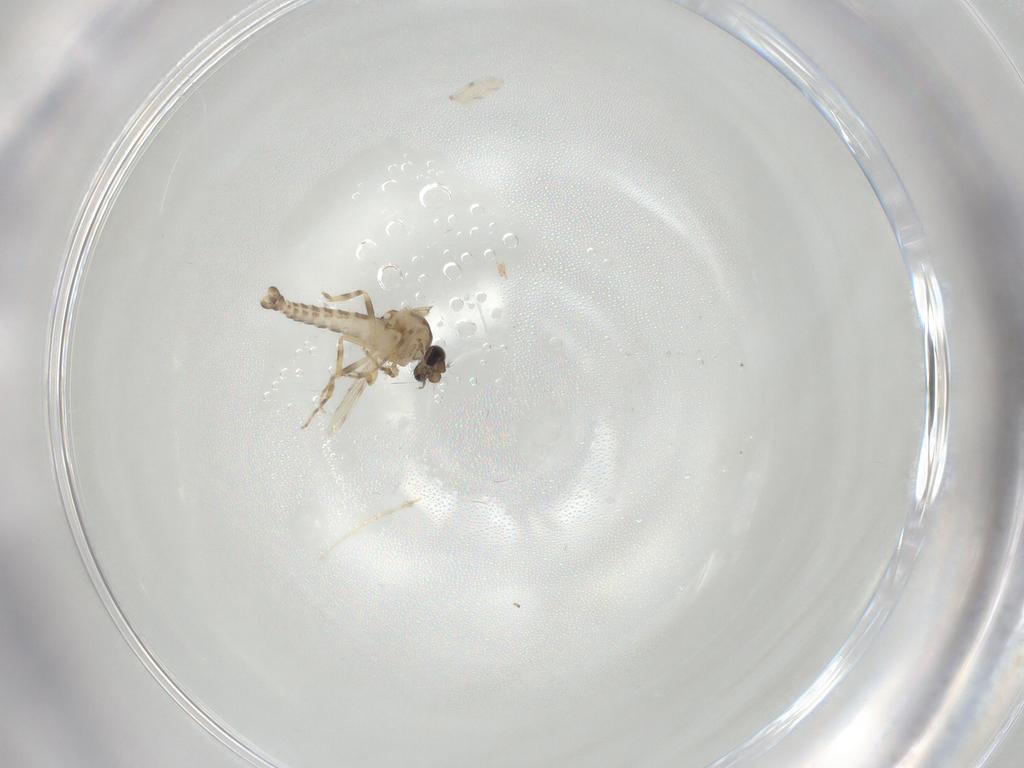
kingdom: Animalia
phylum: Arthropoda
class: Insecta
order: Diptera
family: Ceratopogonidae
